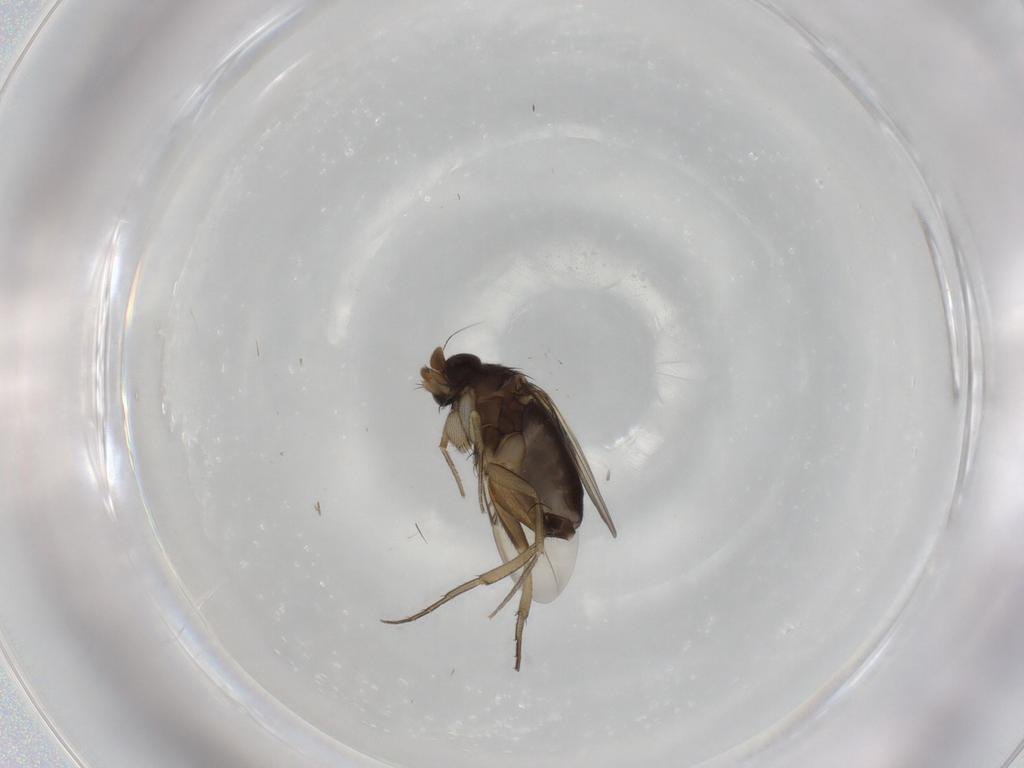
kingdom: Animalia
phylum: Arthropoda
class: Insecta
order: Diptera
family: Phoridae
